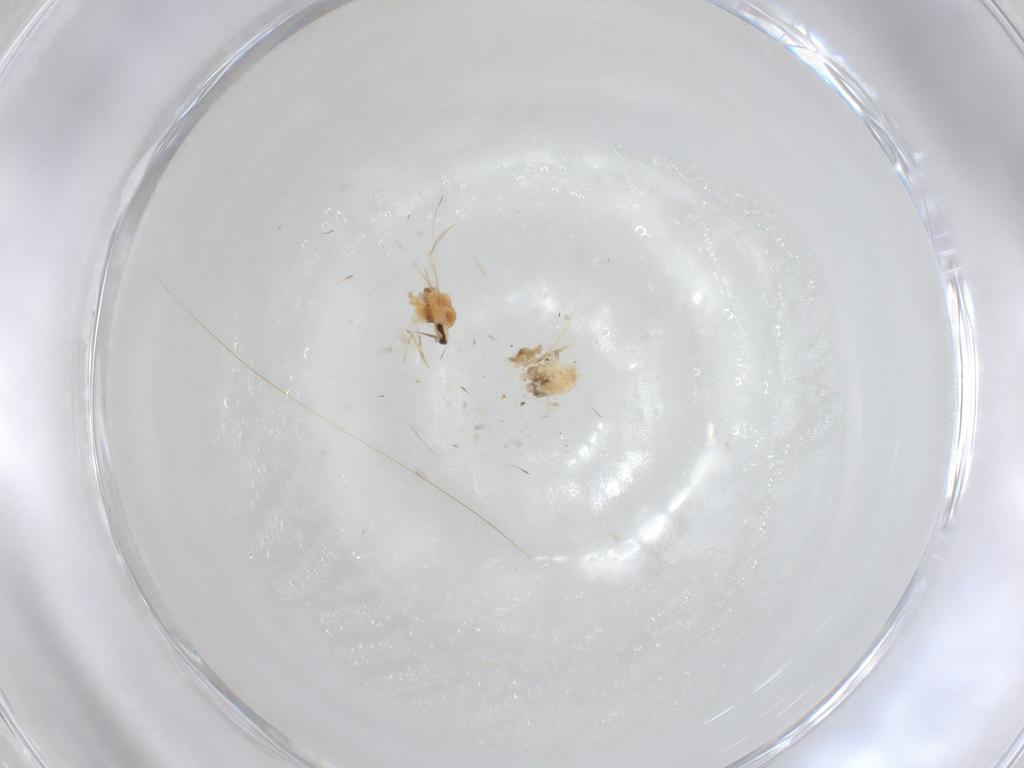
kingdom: Animalia
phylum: Arthropoda
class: Insecta
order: Diptera
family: Cecidomyiidae
